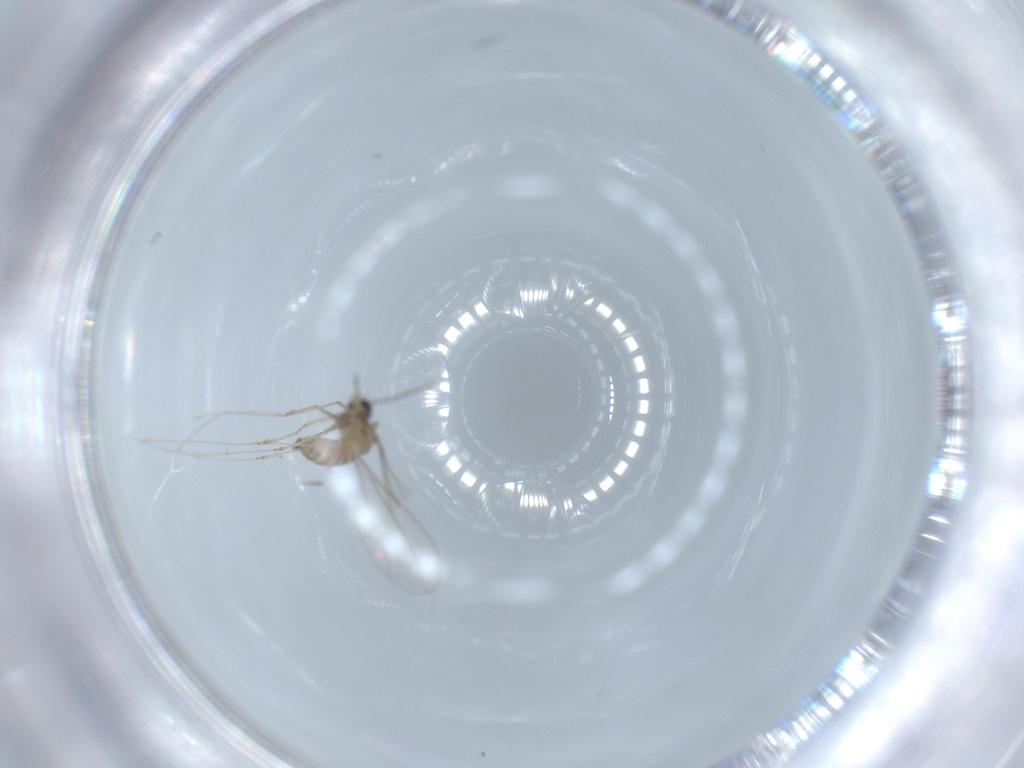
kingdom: Animalia
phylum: Arthropoda
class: Insecta
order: Diptera
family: Cecidomyiidae
